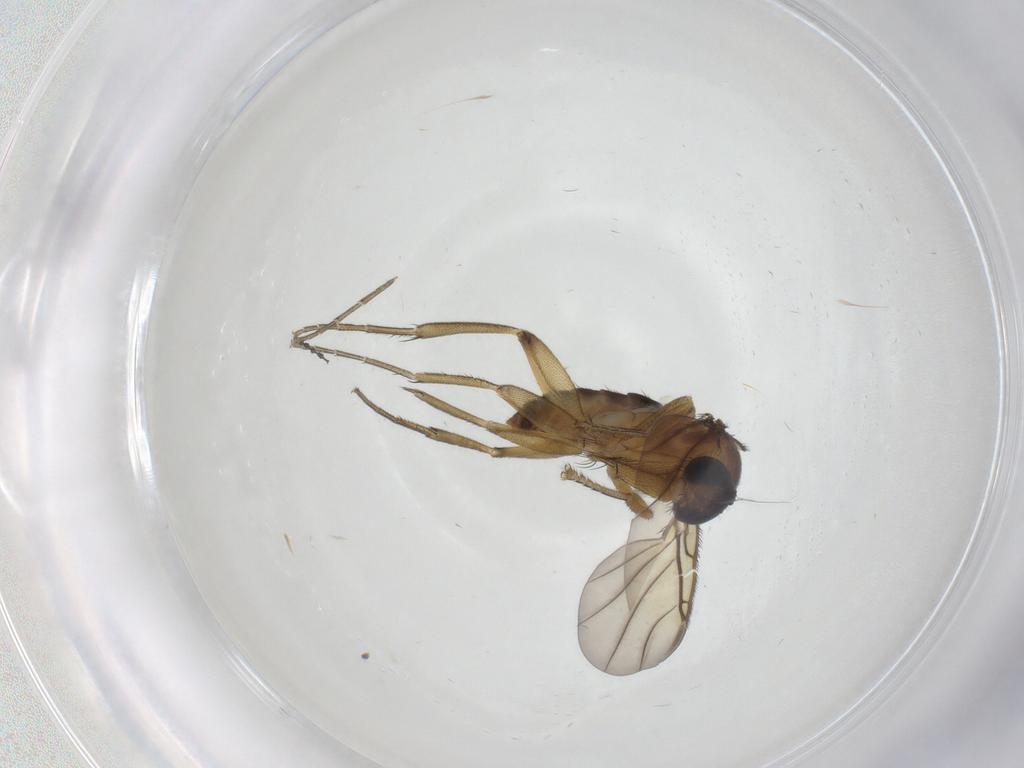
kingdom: Animalia
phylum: Arthropoda
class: Insecta
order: Diptera
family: Phoridae
